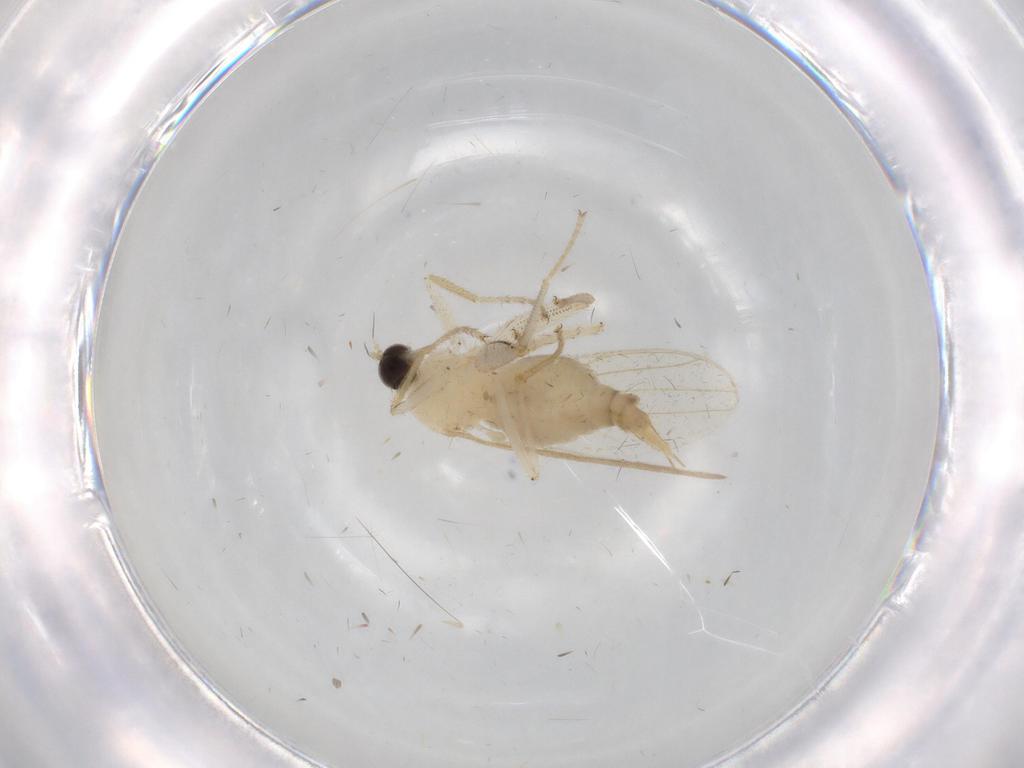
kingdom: Animalia
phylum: Arthropoda
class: Insecta
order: Diptera
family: Hybotidae
